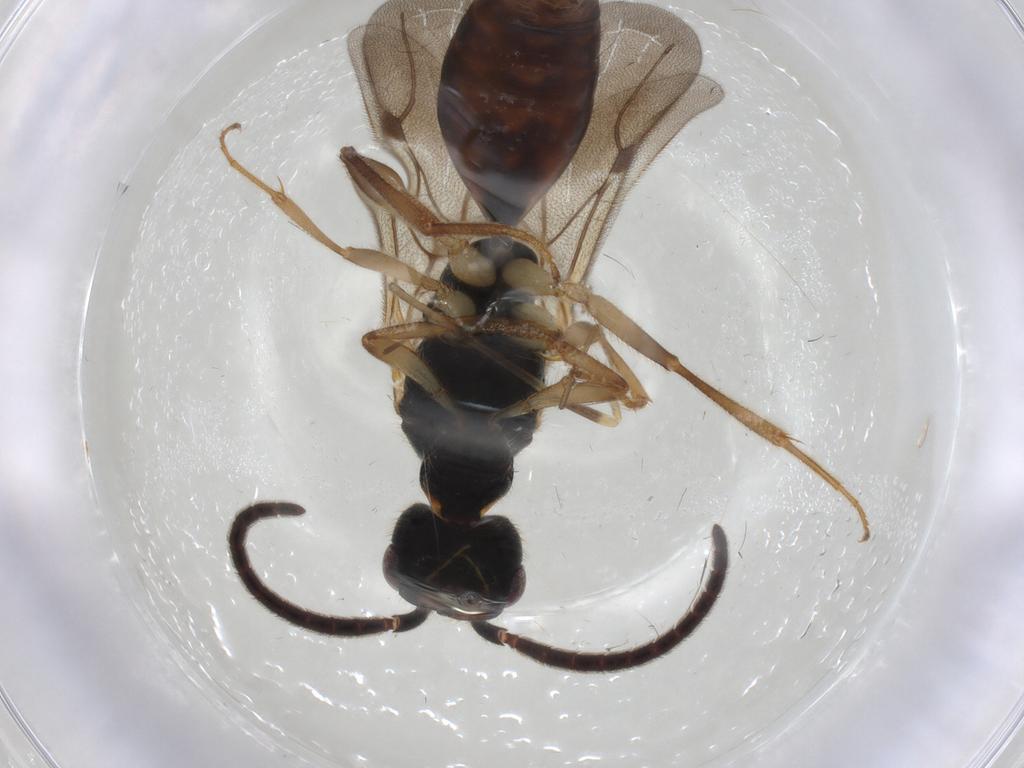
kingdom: Animalia
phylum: Arthropoda
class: Insecta
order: Hymenoptera
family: Bethylidae
